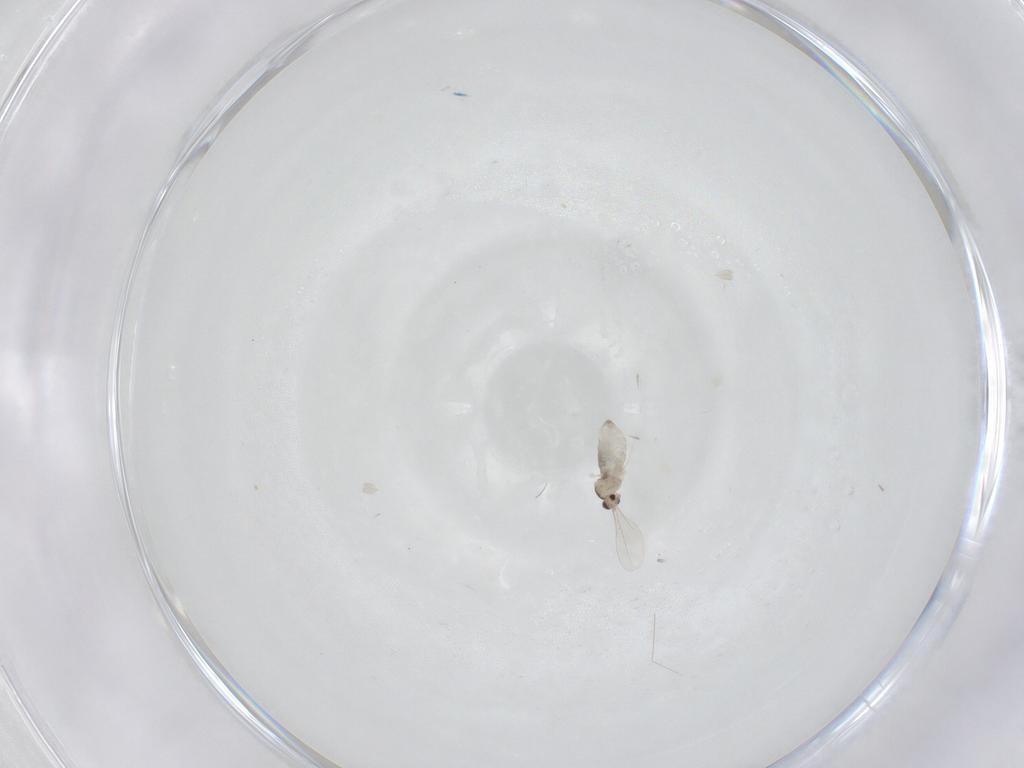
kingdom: Animalia
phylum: Arthropoda
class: Insecta
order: Diptera
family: Cecidomyiidae
